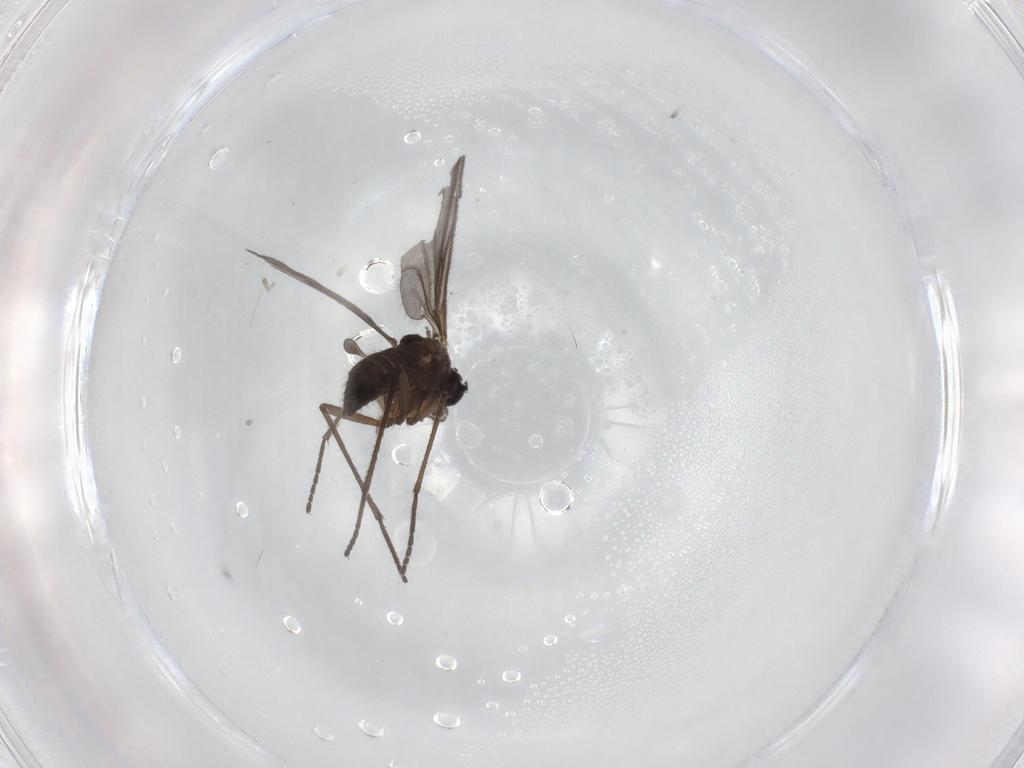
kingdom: Animalia
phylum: Arthropoda
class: Insecta
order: Diptera
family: Sciaridae
